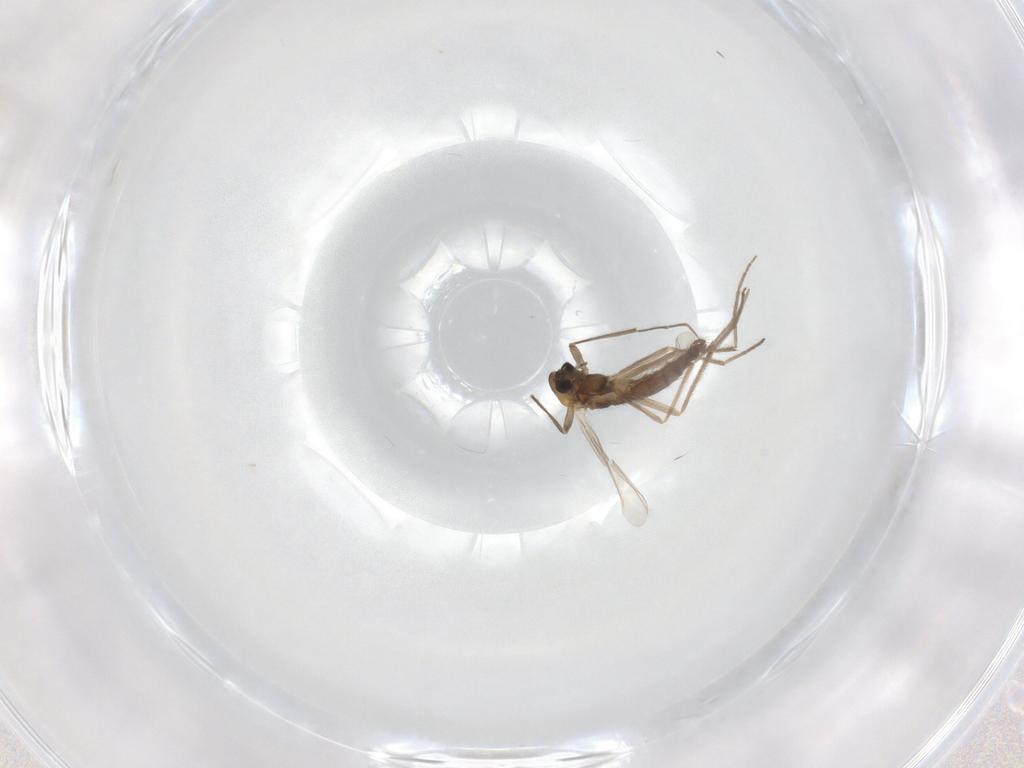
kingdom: Animalia
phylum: Arthropoda
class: Insecta
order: Diptera
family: Chironomidae
